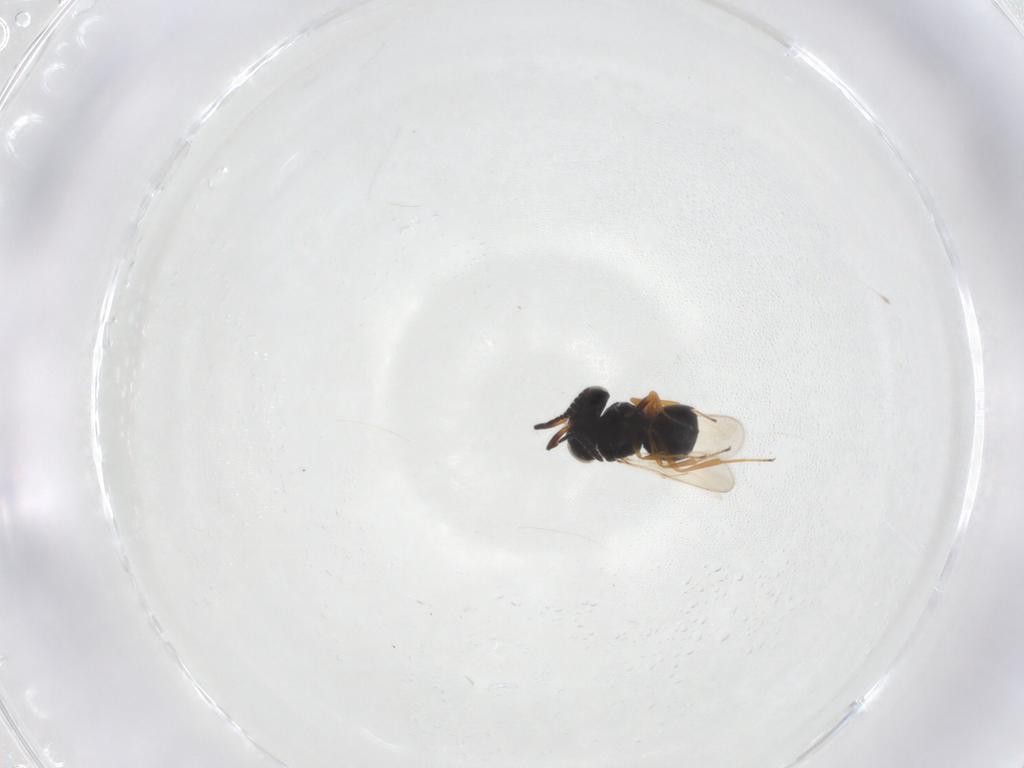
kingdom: Animalia
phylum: Arthropoda
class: Insecta
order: Hymenoptera
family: Scelionidae
